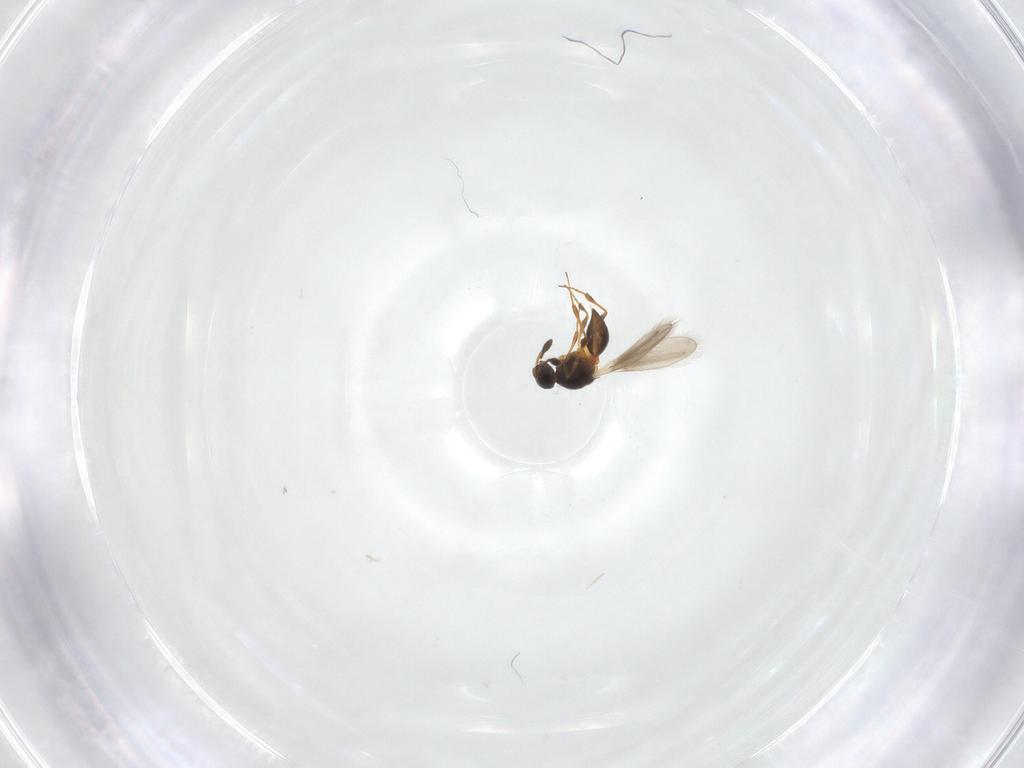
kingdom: Animalia
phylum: Arthropoda
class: Insecta
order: Hymenoptera
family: Platygastridae
